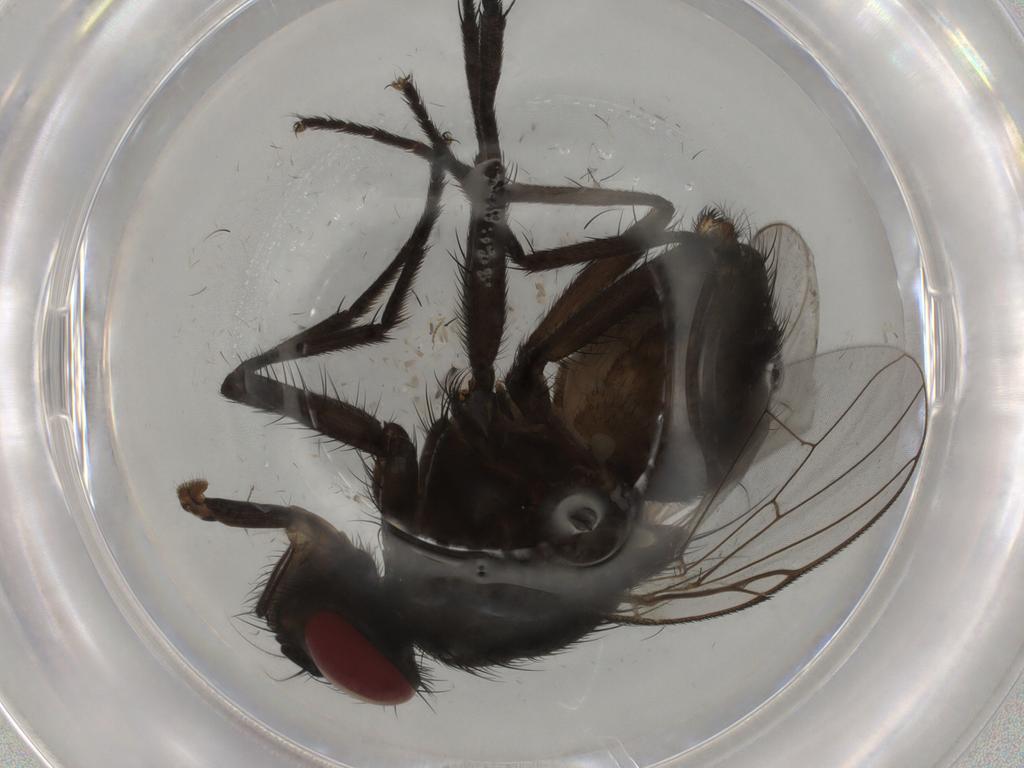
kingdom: Animalia
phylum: Arthropoda
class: Insecta
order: Diptera
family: Muscidae
